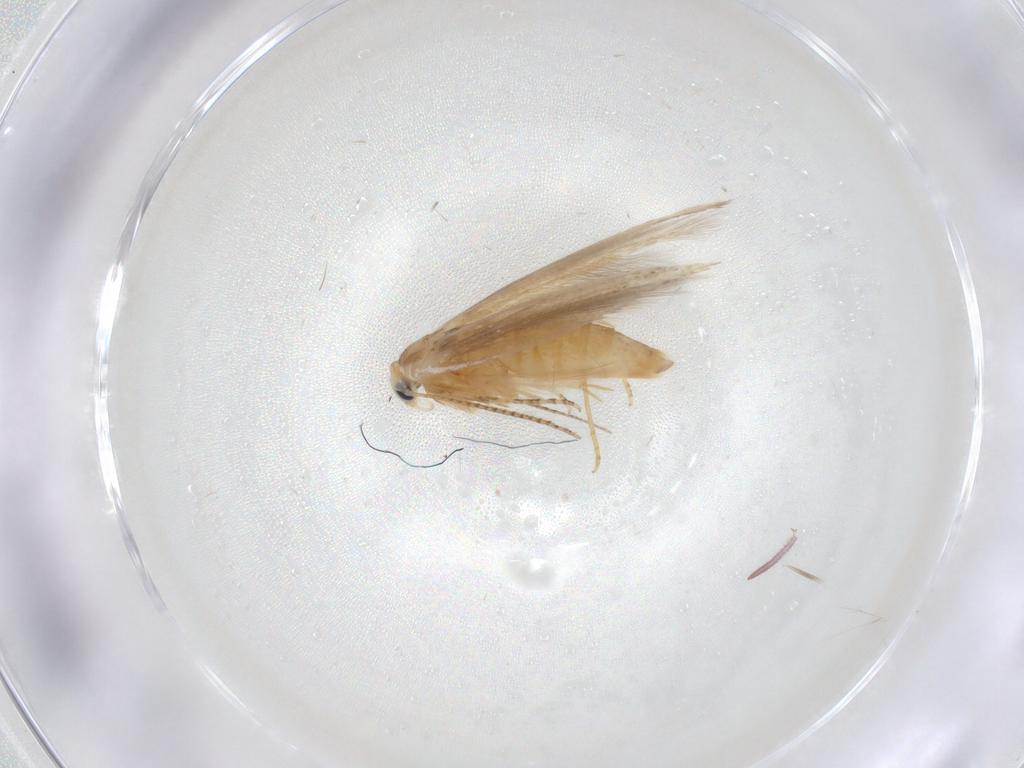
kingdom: Animalia
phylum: Arthropoda
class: Insecta
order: Lepidoptera
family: Bucculatricidae
